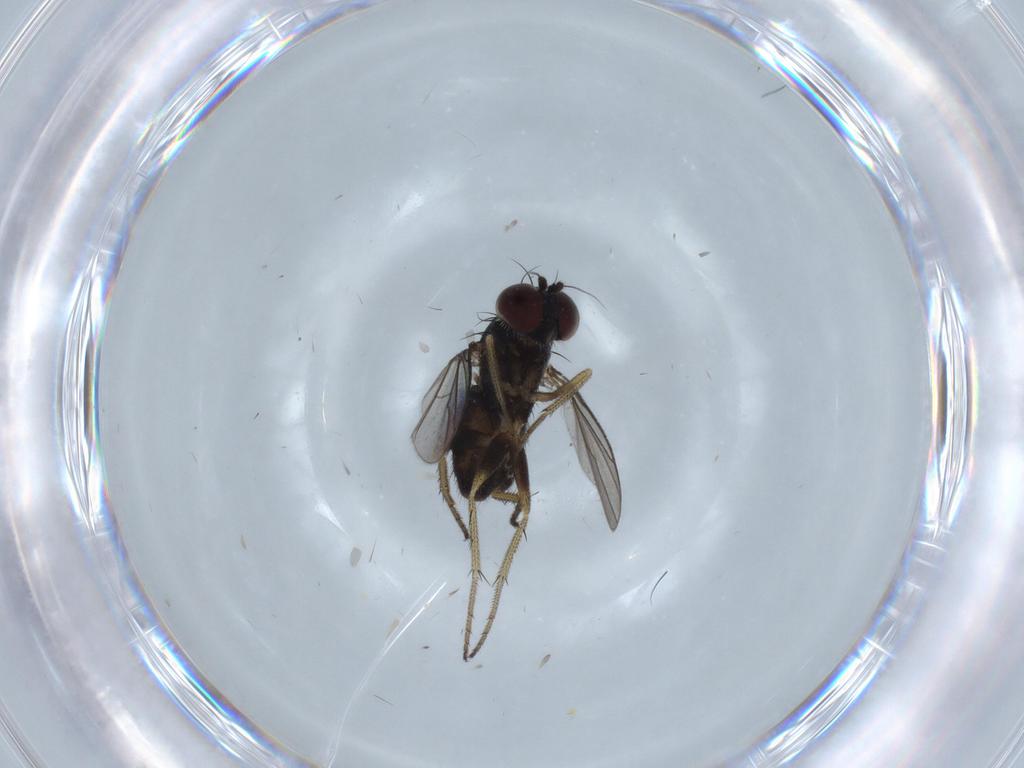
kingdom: Animalia
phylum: Arthropoda
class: Insecta
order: Diptera
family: Dolichopodidae
